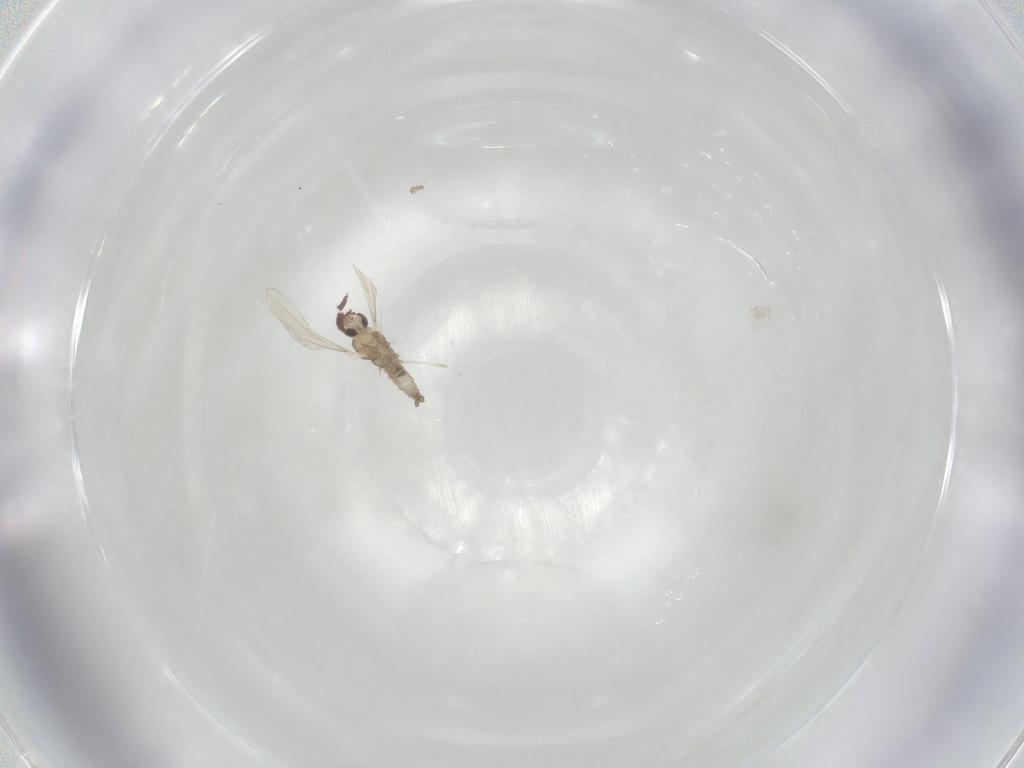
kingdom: Animalia
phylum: Arthropoda
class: Insecta
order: Diptera
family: Cecidomyiidae
